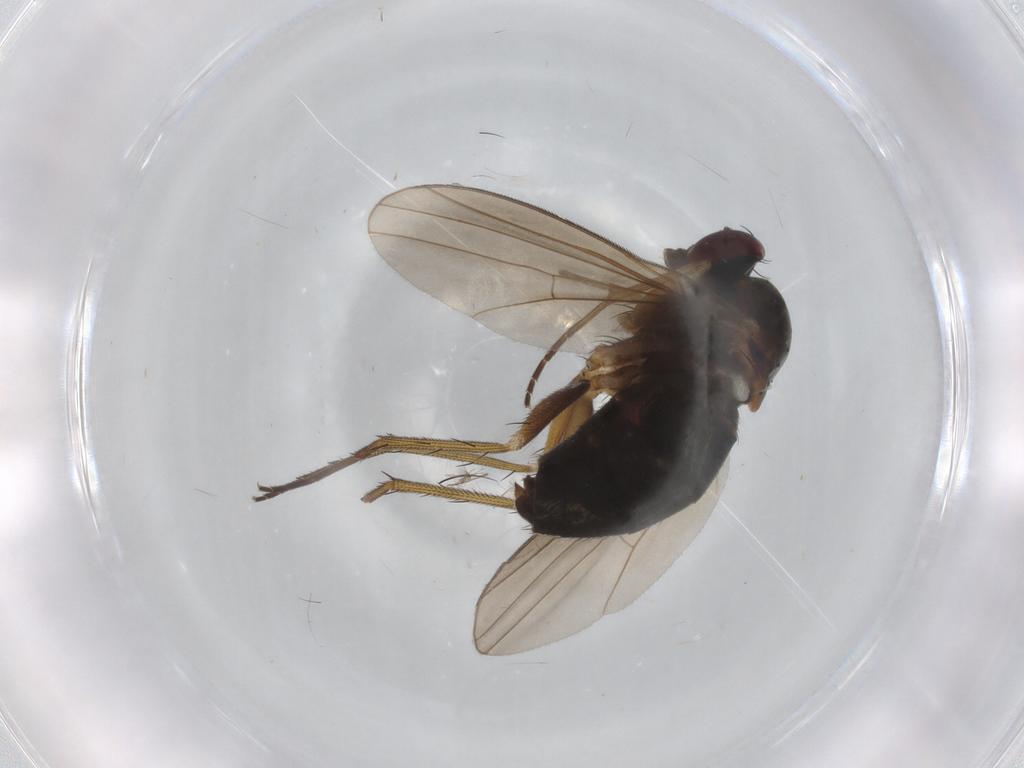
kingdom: Animalia
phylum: Arthropoda
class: Insecta
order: Diptera
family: Dolichopodidae
